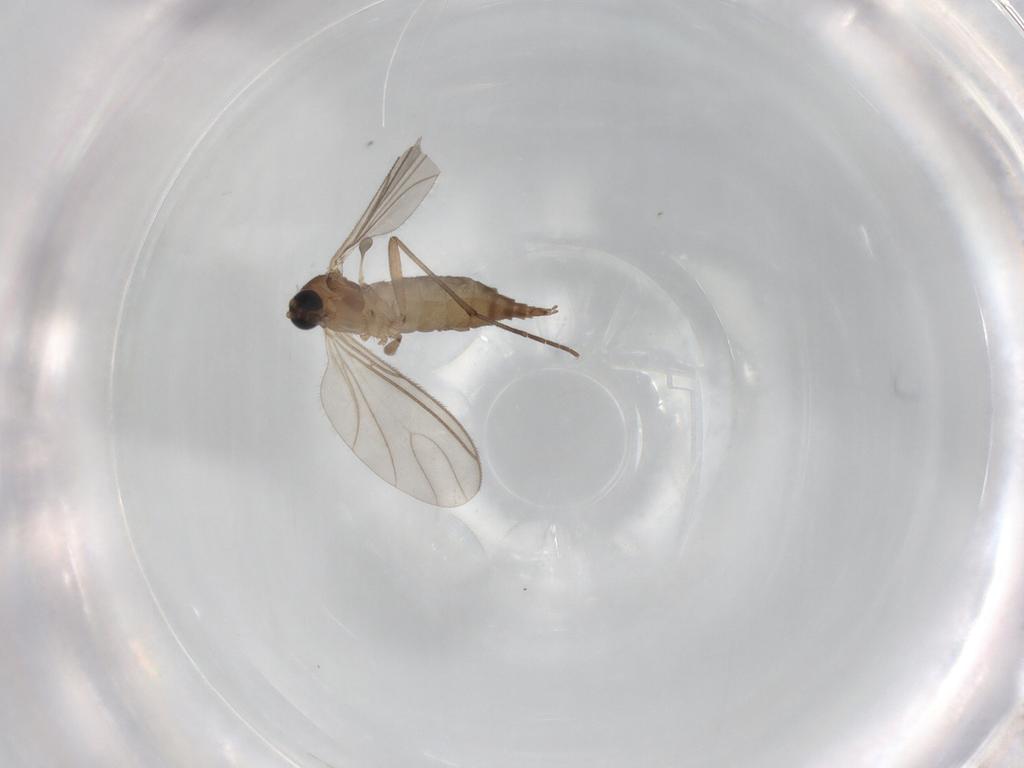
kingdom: Animalia
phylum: Arthropoda
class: Insecta
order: Diptera
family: Sciaridae
